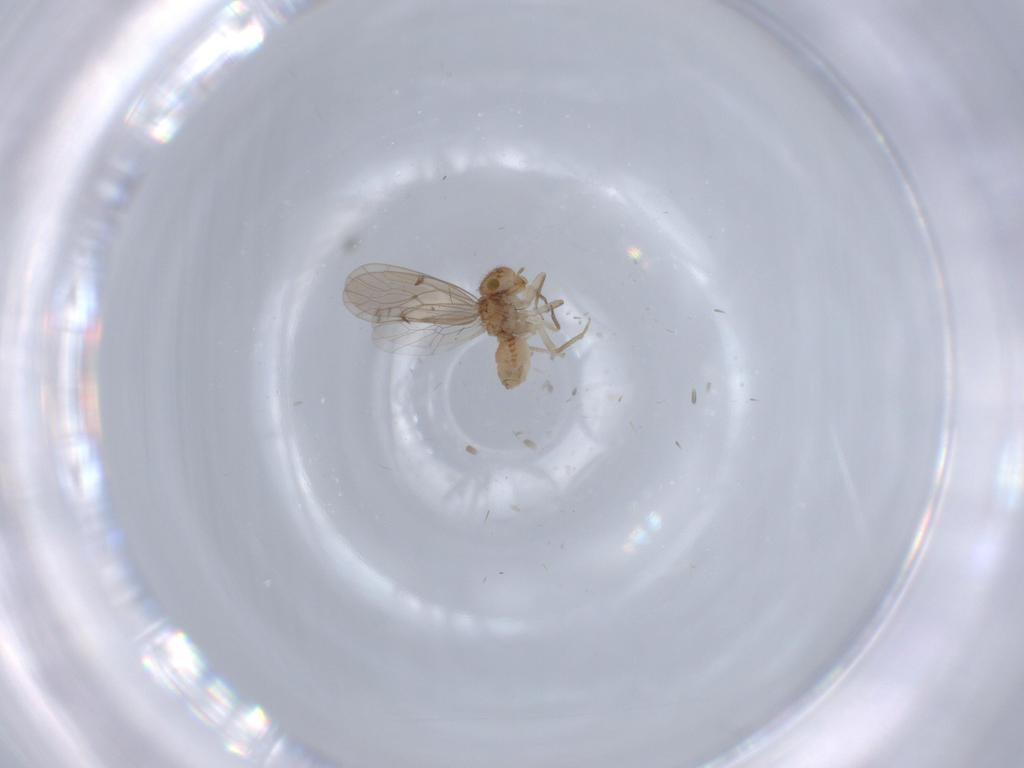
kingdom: Animalia
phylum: Arthropoda
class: Insecta
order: Psocodea
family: Ectopsocidae
